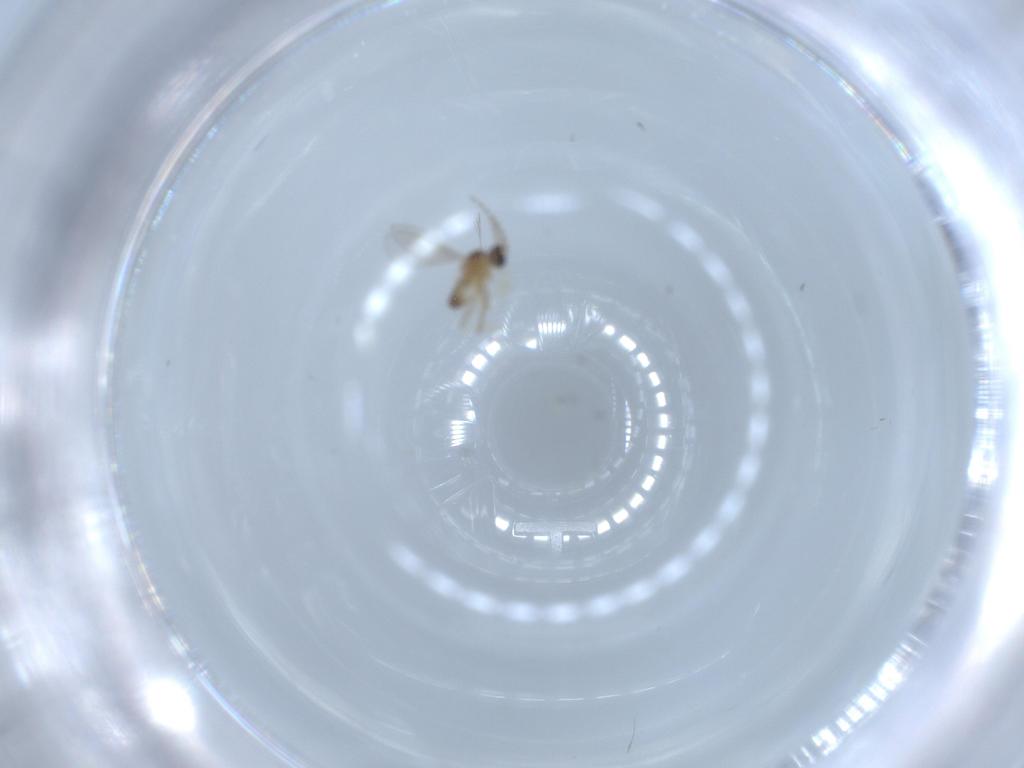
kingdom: Animalia
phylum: Arthropoda
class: Insecta
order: Diptera
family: Cecidomyiidae
